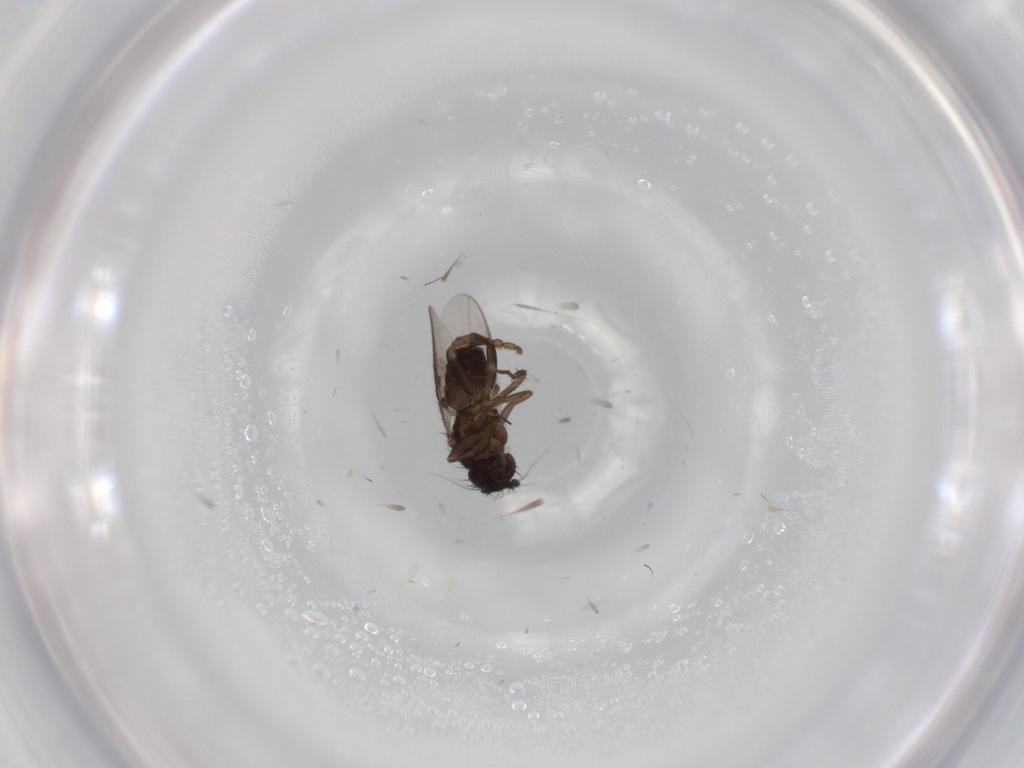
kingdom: Animalia
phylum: Arthropoda
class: Insecta
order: Diptera
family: Sphaeroceridae
